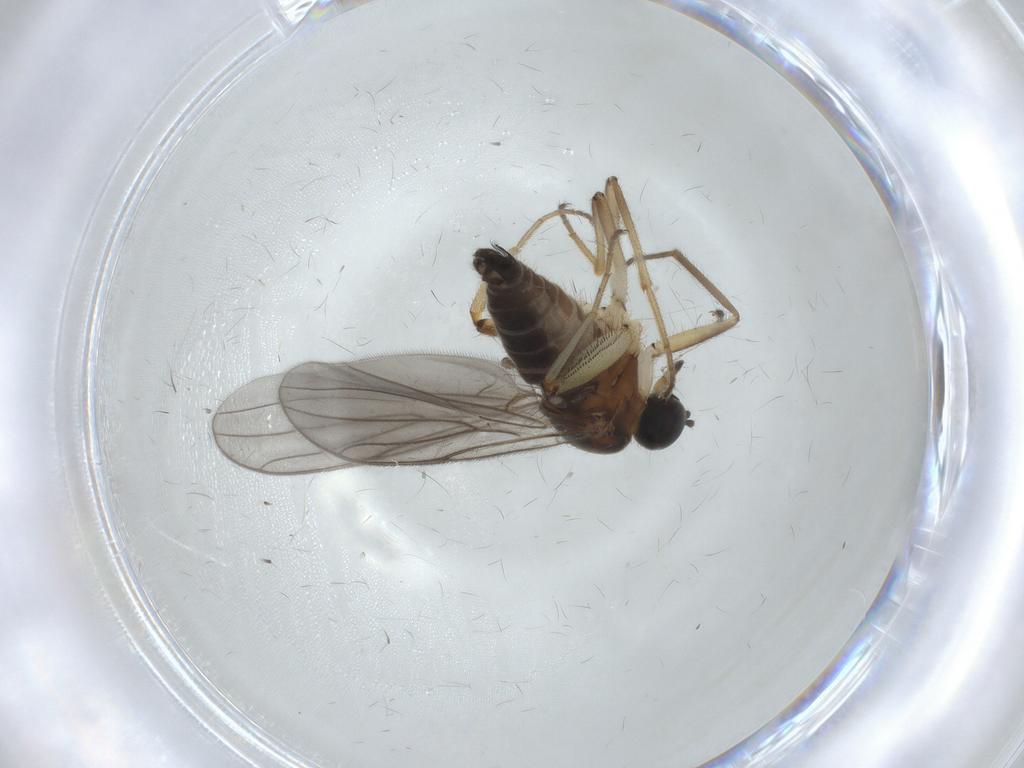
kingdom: Animalia
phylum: Arthropoda
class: Insecta
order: Diptera
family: Hybotidae
